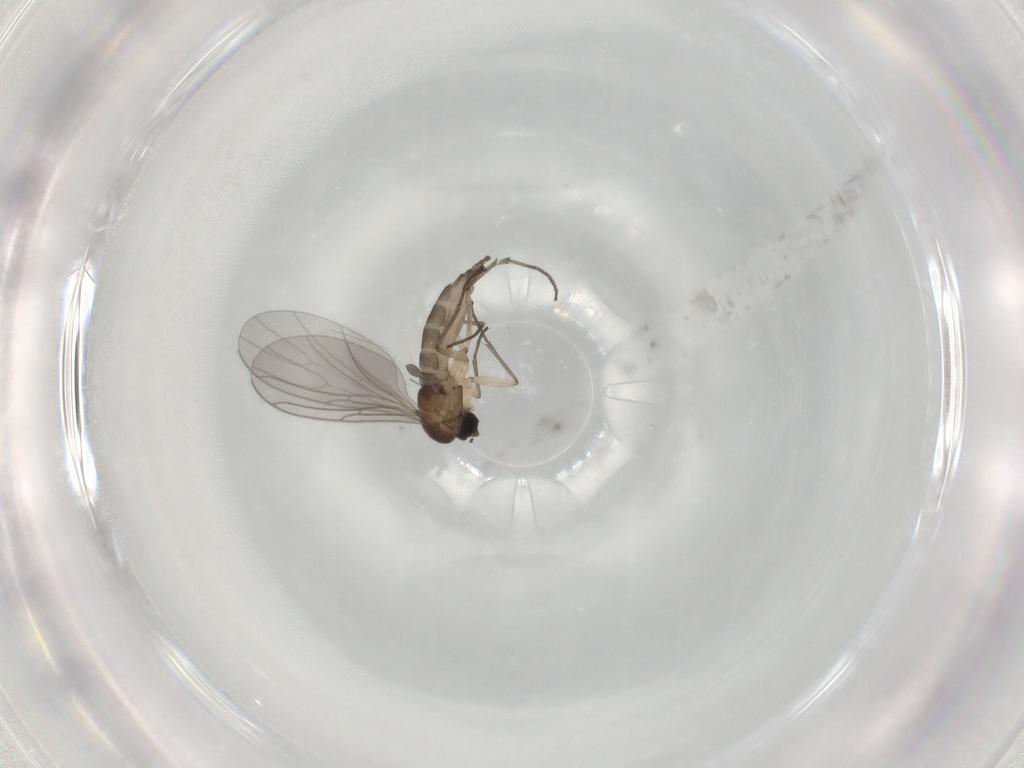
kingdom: Animalia
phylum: Arthropoda
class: Insecta
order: Diptera
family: Sciaridae
